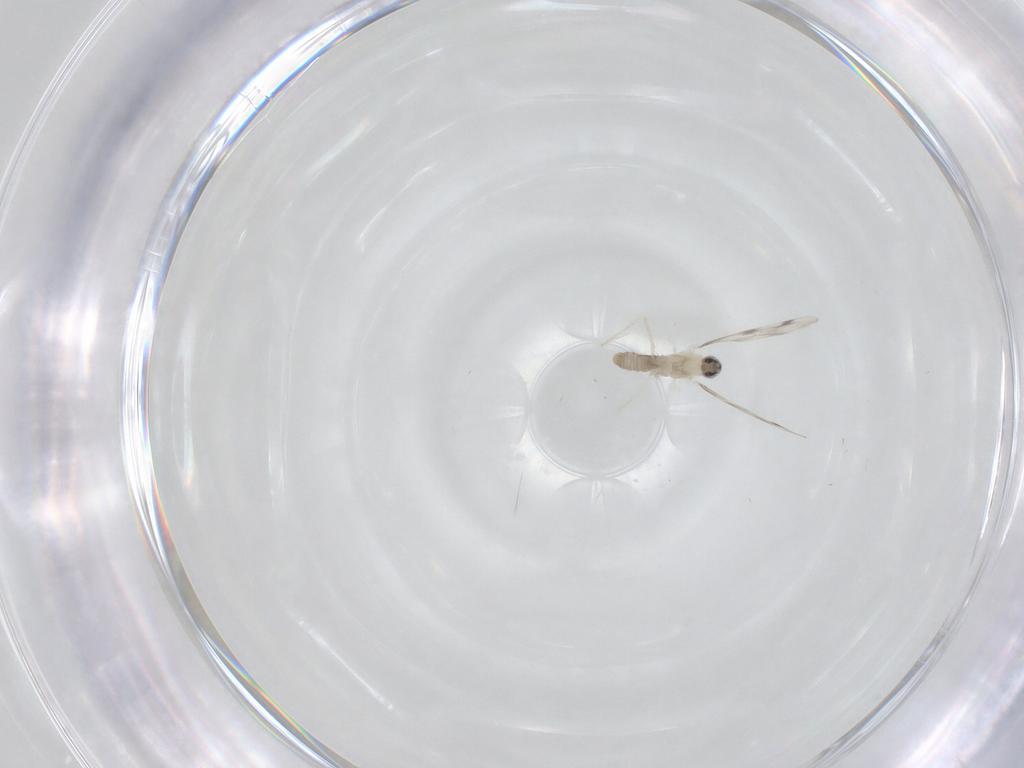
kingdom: Animalia
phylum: Arthropoda
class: Insecta
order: Diptera
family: Cecidomyiidae
